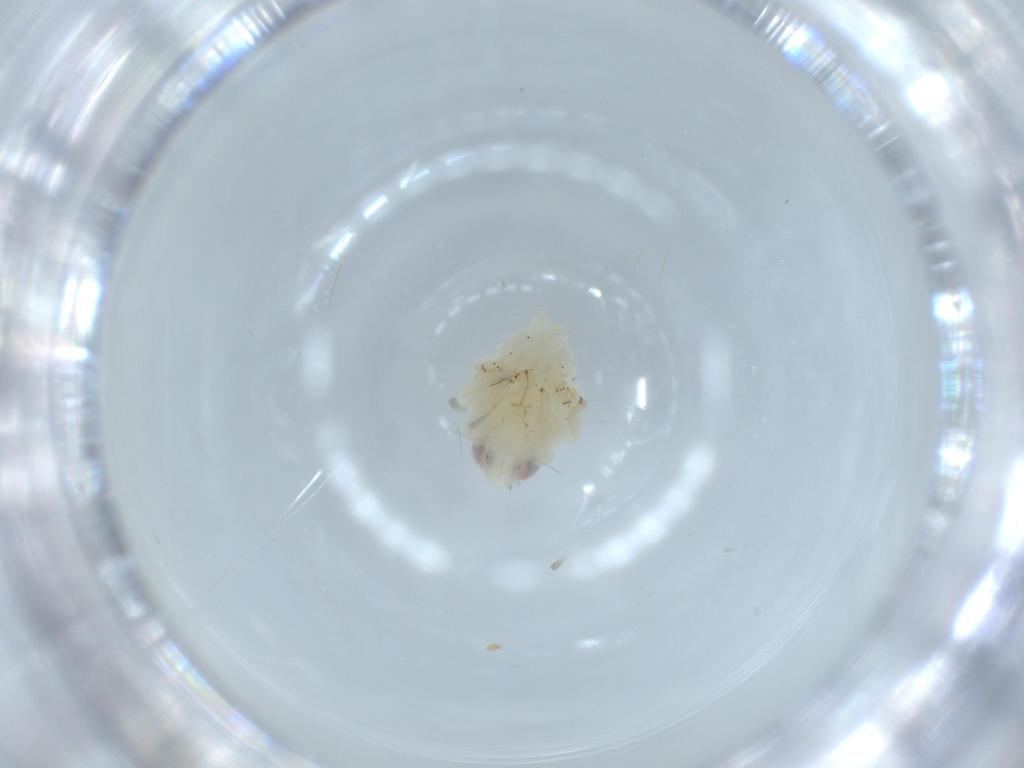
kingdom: Animalia
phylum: Arthropoda
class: Insecta
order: Hemiptera
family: Nogodinidae
